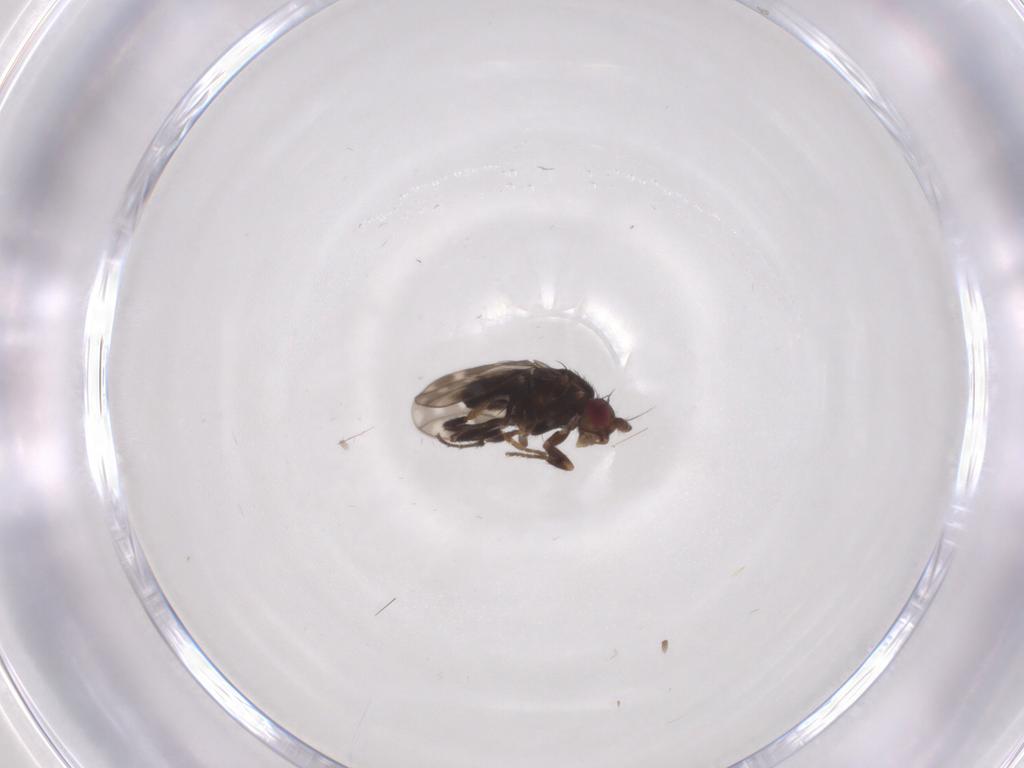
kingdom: Animalia
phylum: Arthropoda
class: Insecta
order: Diptera
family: Sphaeroceridae
